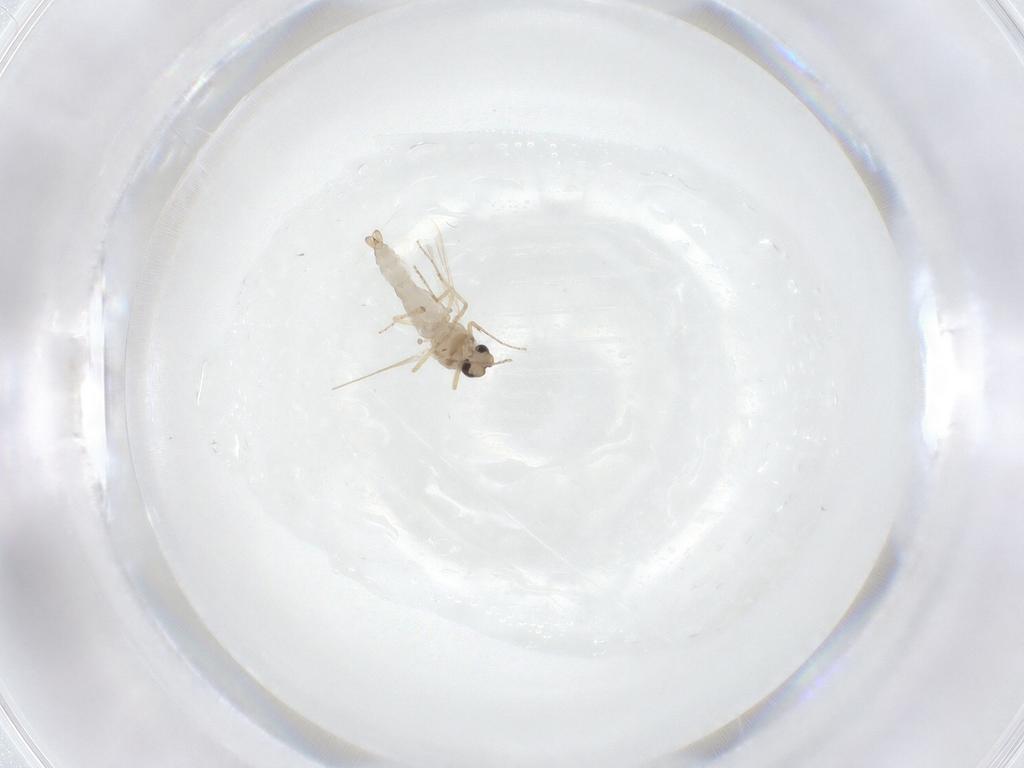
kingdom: Animalia
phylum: Arthropoda
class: Insecta
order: Diptera
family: Ceratopogonidae
